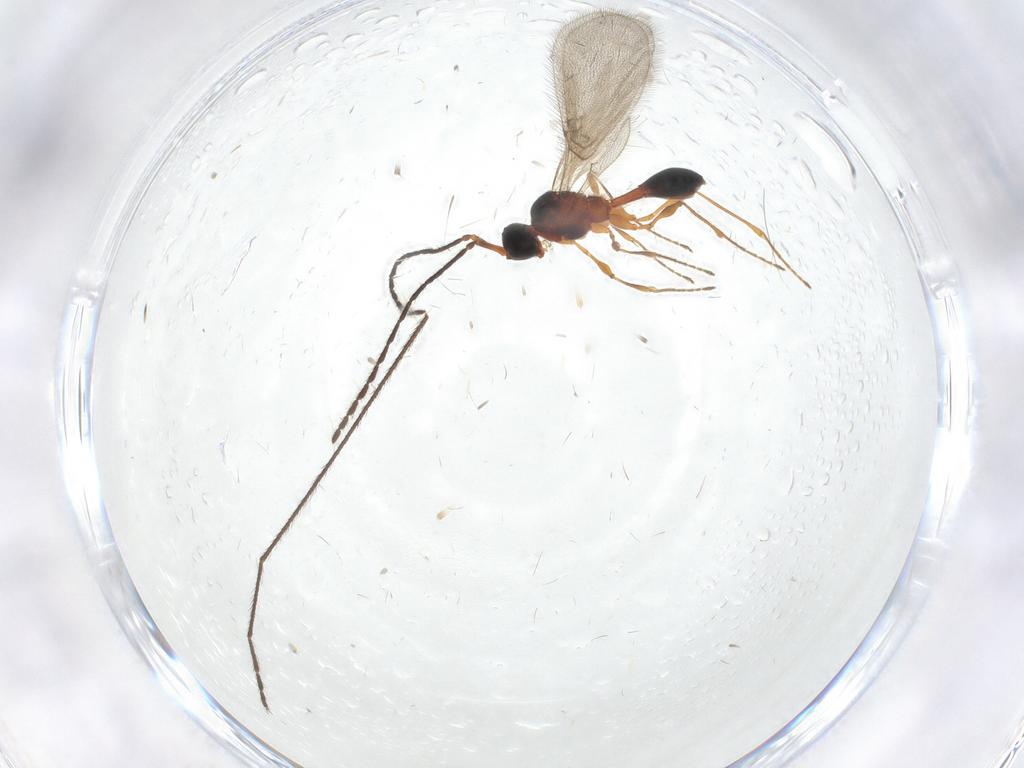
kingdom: Animalia
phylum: Arthropoda
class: Insecta
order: Hymenoptera
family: Diapriidae
